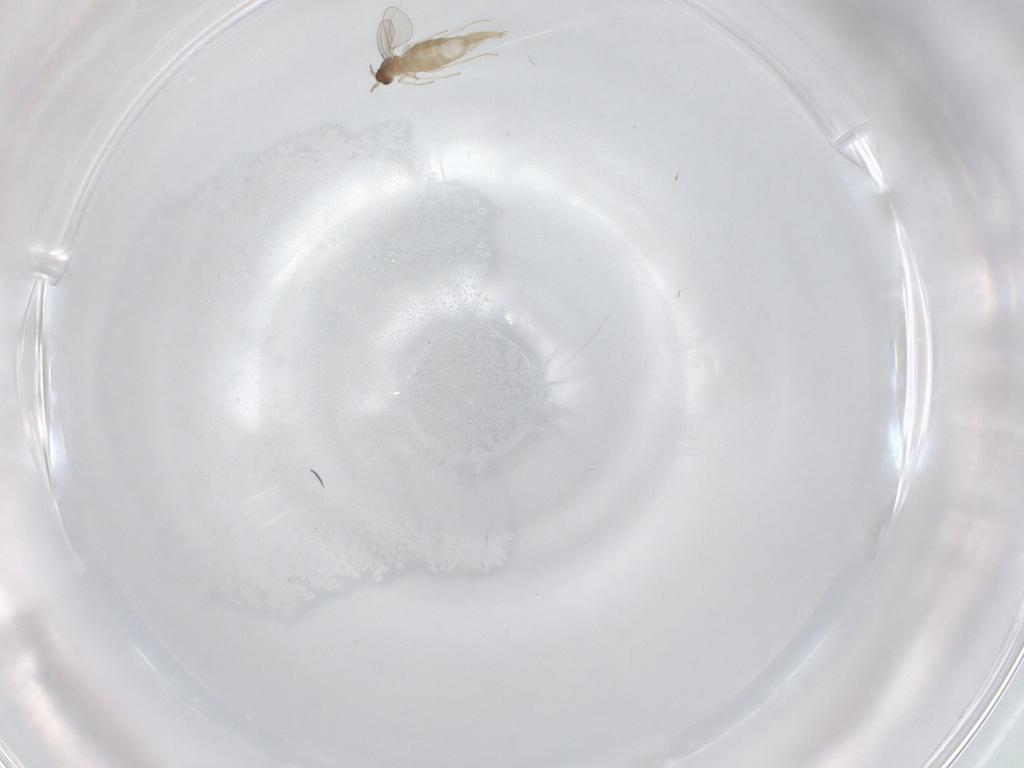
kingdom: Animalia
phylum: Arthropoda
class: Insecta
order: Diptera
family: Cecidomyiidae
